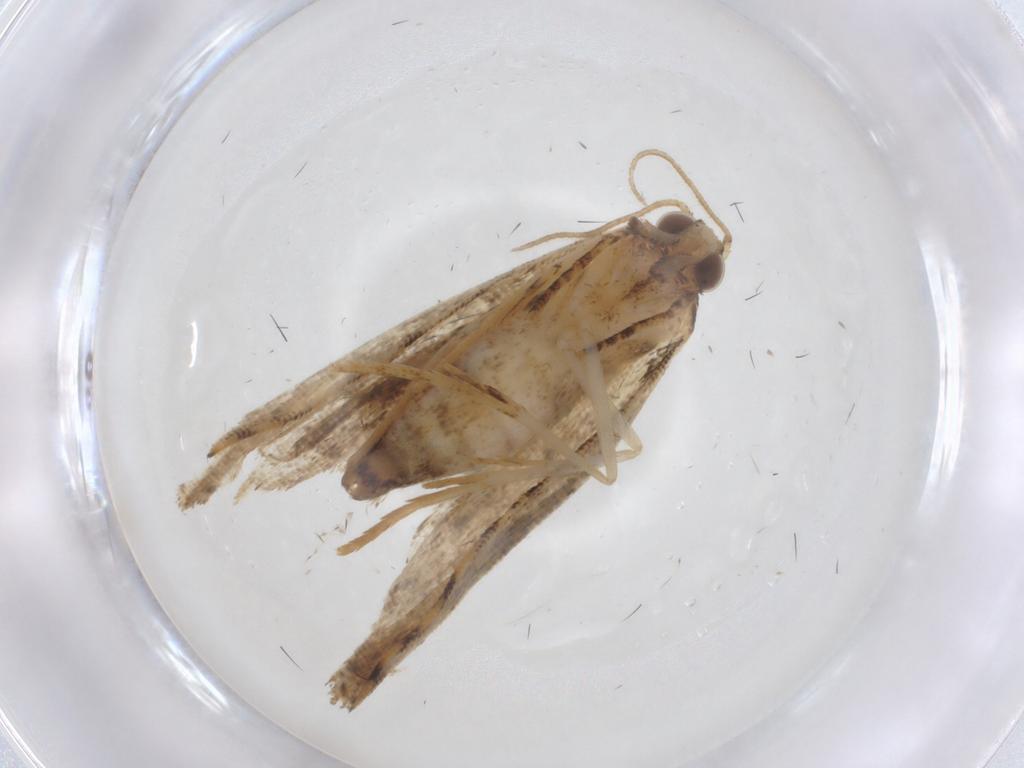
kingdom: Animalia
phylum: Arthropoda
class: Insecta
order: Lepidoptera
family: Erebidae
